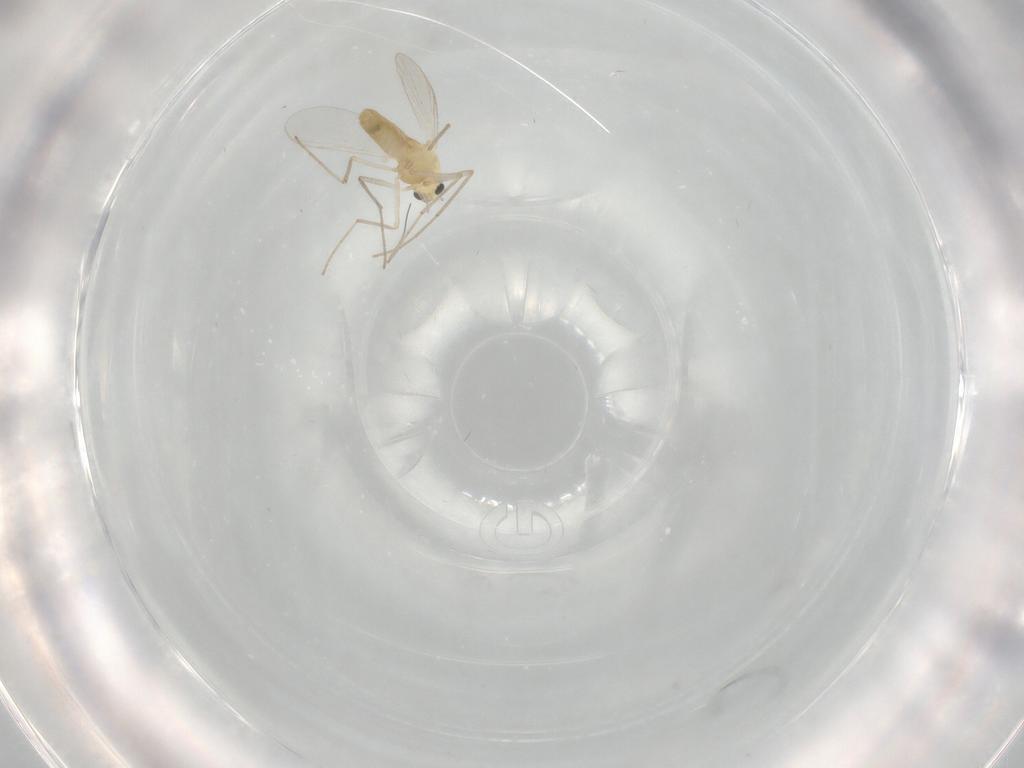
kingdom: Animalia
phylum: Arthropoda
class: Insecta
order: Diptera
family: Chironomidae
